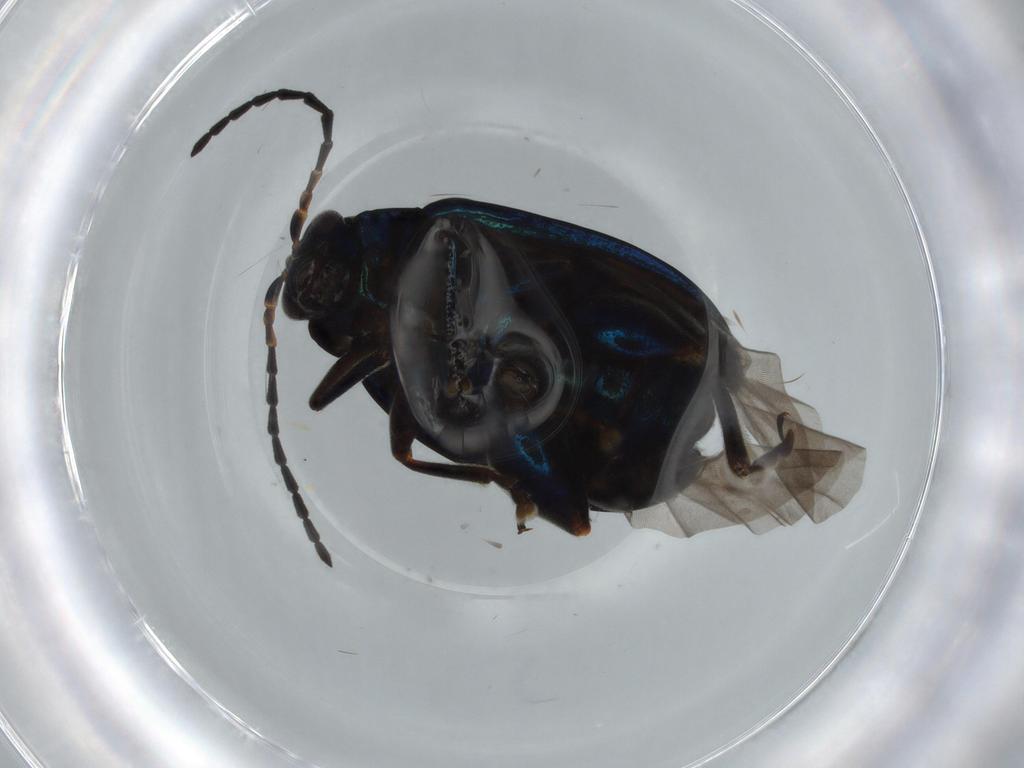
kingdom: Animalia
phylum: Arthropoda
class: Insecta
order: Coleoptera
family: Chrysomelidae
